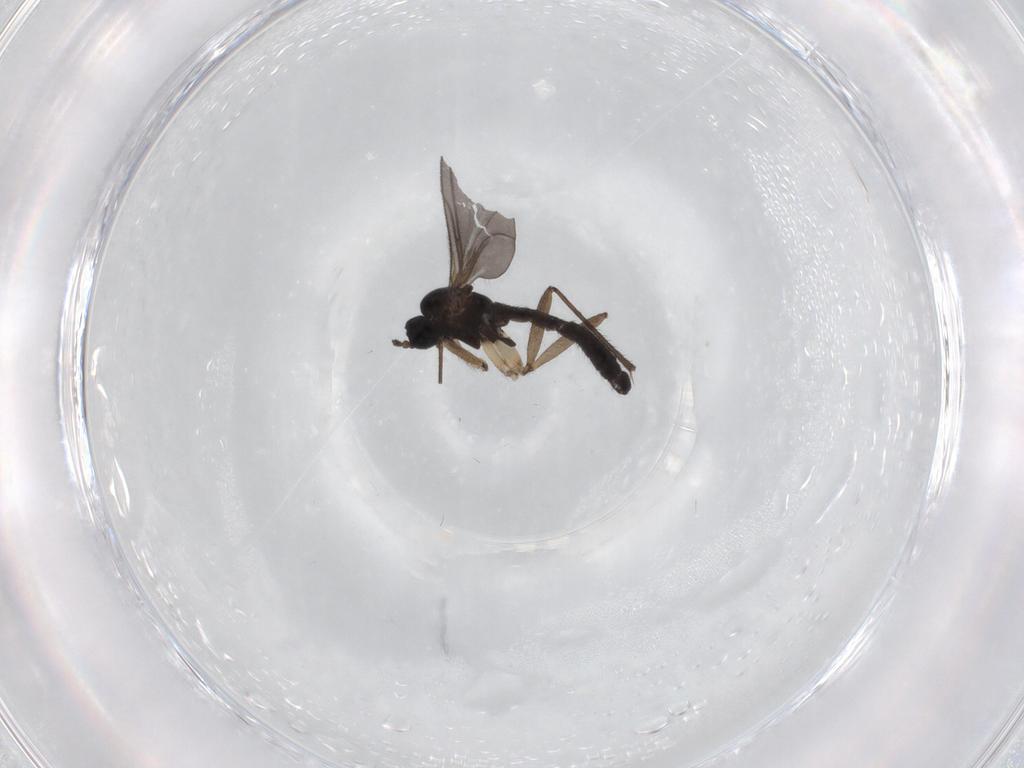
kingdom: Animalia
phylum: Arthropoda
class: Insecta
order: Diptera
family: Sciaridae
